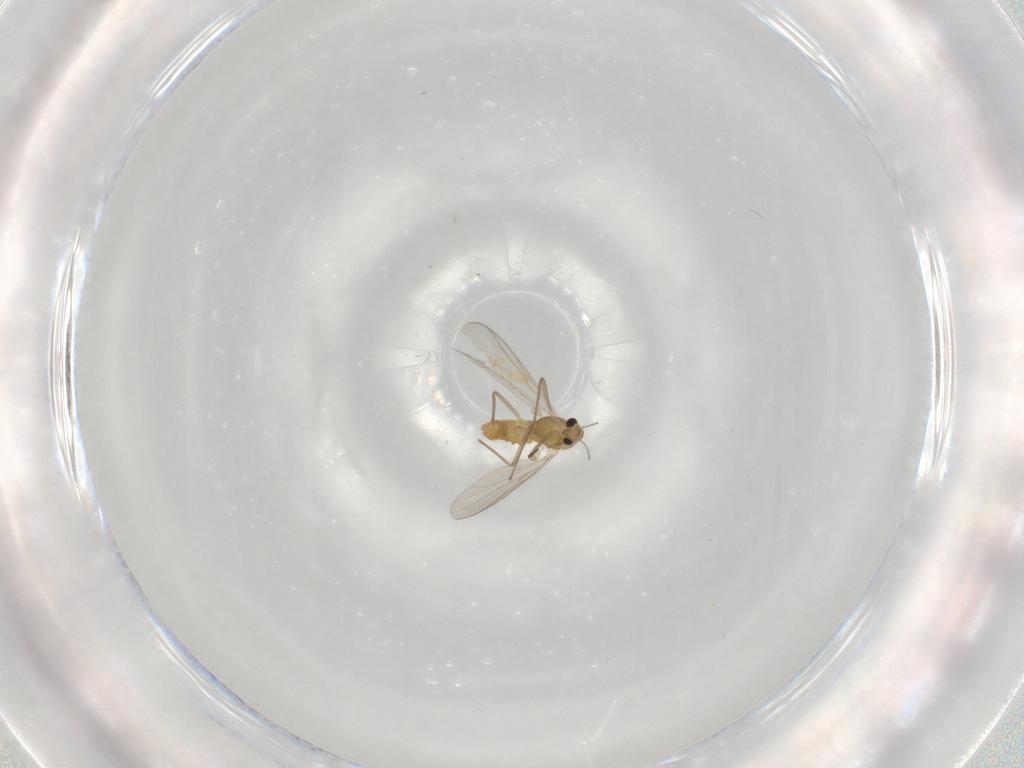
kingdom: Animalia
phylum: Arthropoda
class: Insecta
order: Diptera
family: Chironomidae
